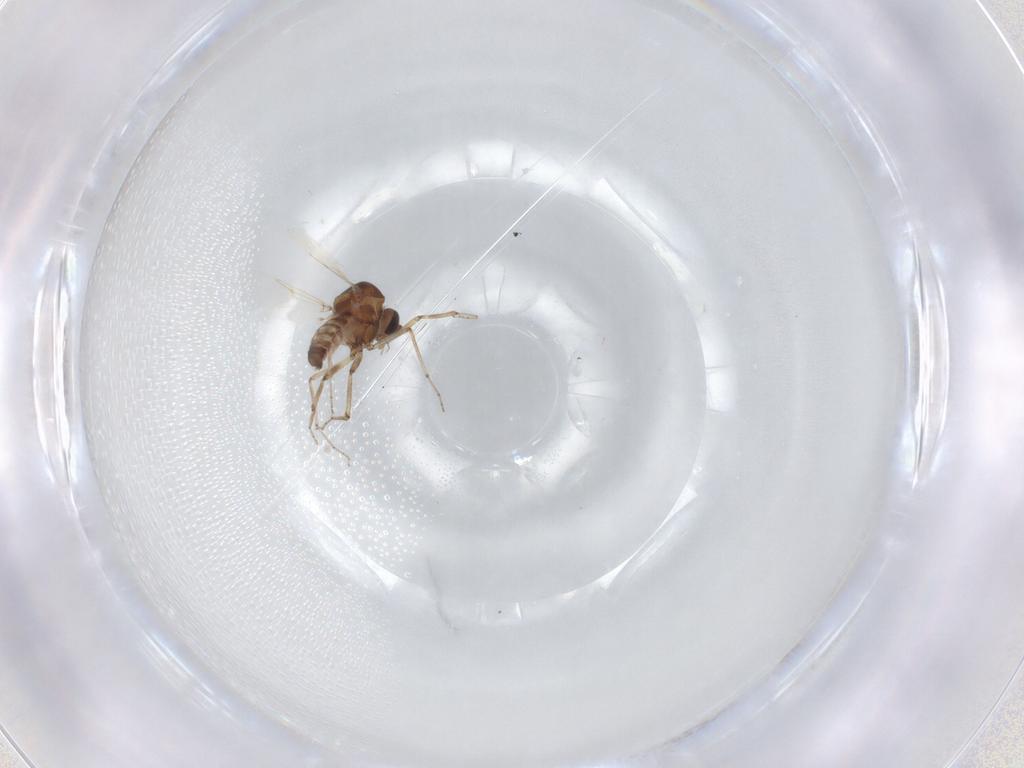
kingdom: Animalia
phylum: Arthropoda
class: Insecta
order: Diptera
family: Ceratopogonidae
